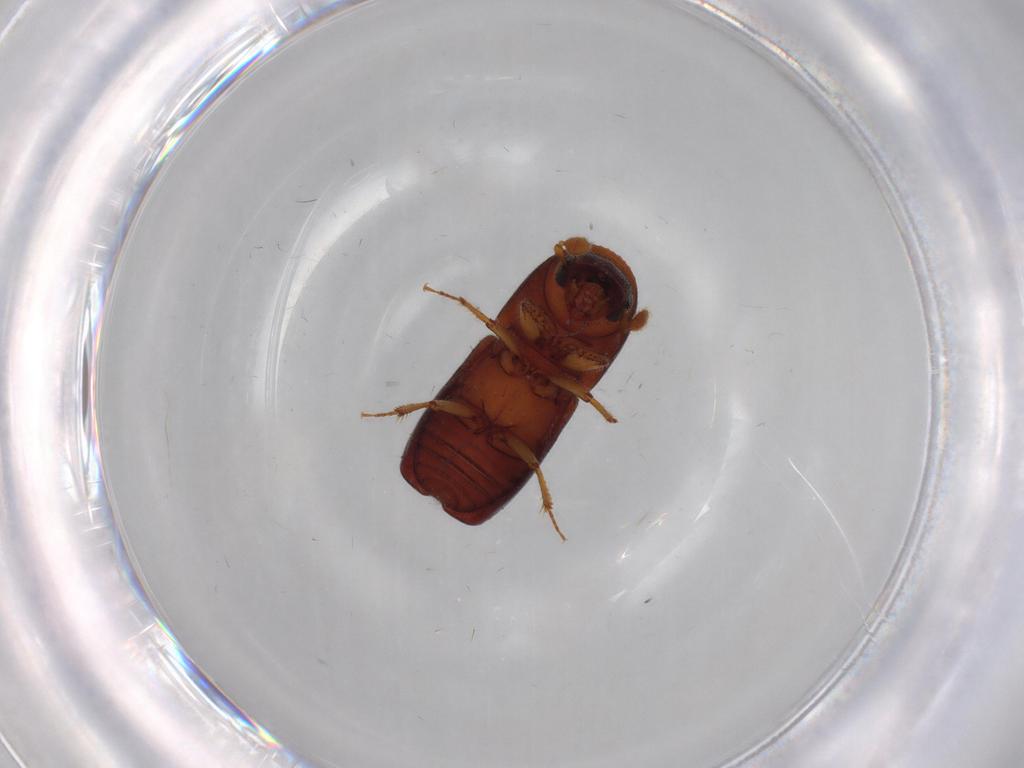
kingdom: Animalia
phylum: Arthropoda
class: Insecta
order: Coleoptera
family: Curculionidae
